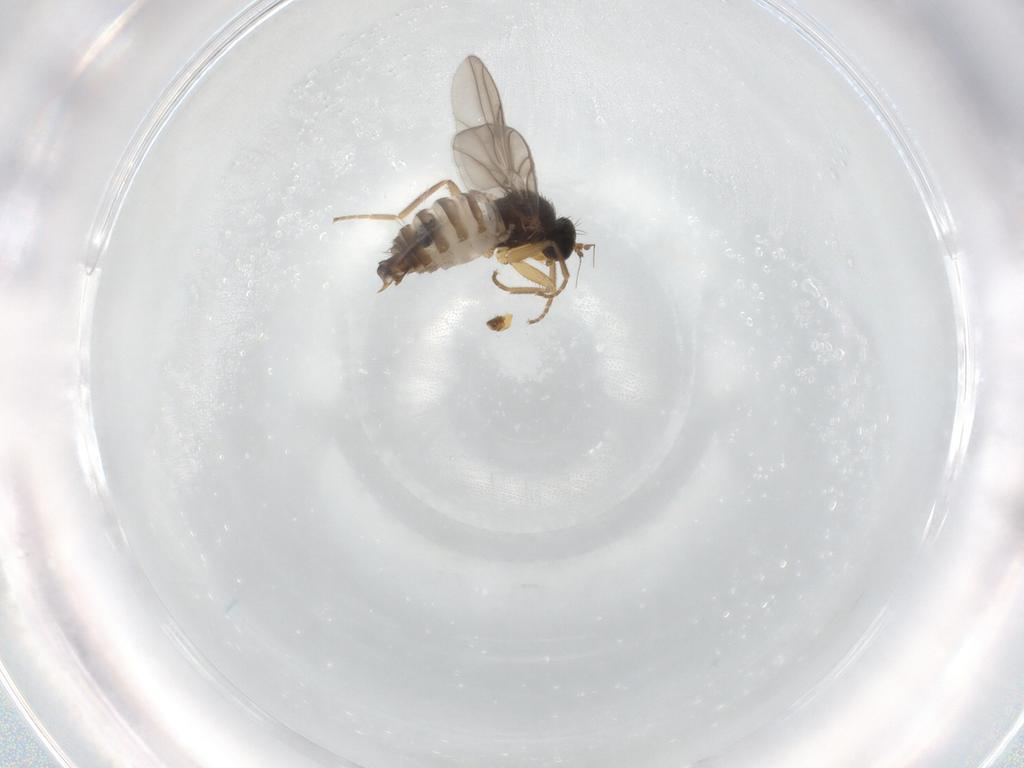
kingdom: Animalia
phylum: Arthropoda
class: Insecta
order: Diptera
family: Hybotidae
